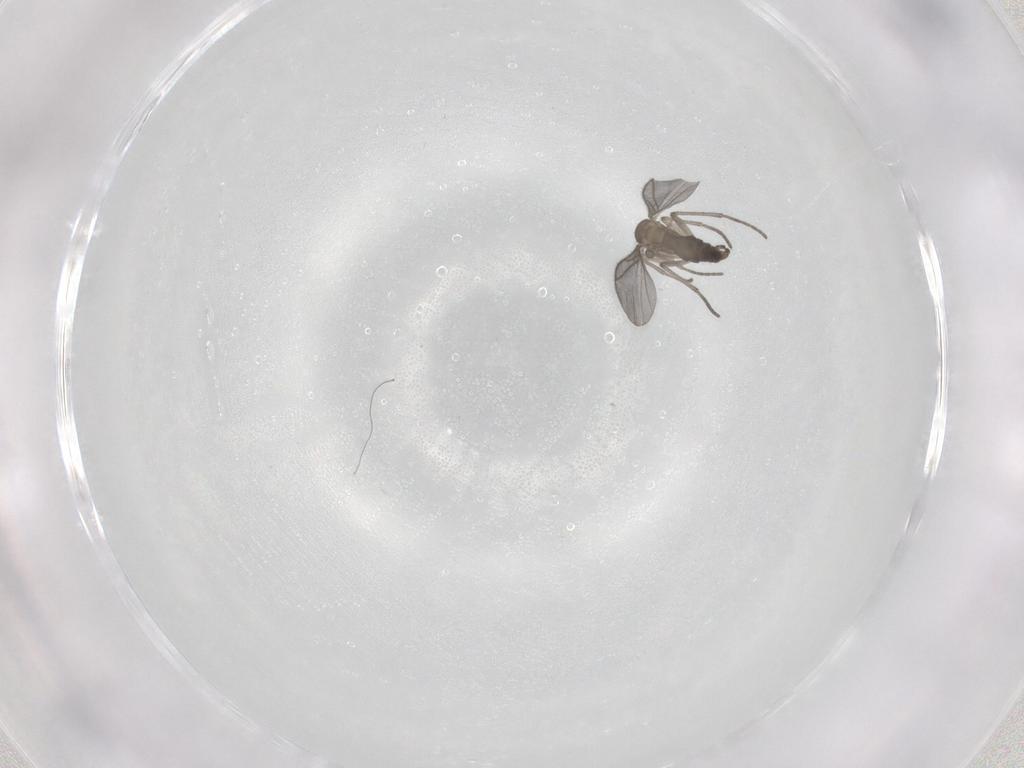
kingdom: Animalia
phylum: Arthropoda
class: Insecta
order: Diptera
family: Sciaridae
